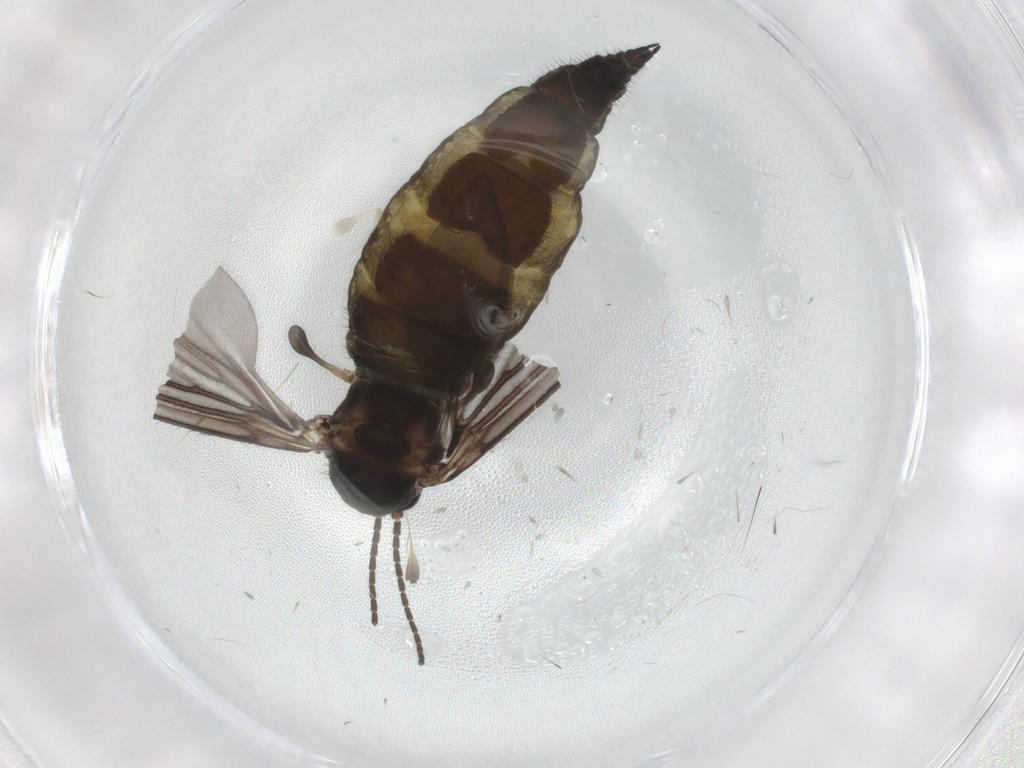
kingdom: Animalia
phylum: Arthropoda
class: Insecta
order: Diptera
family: Sciaridae
